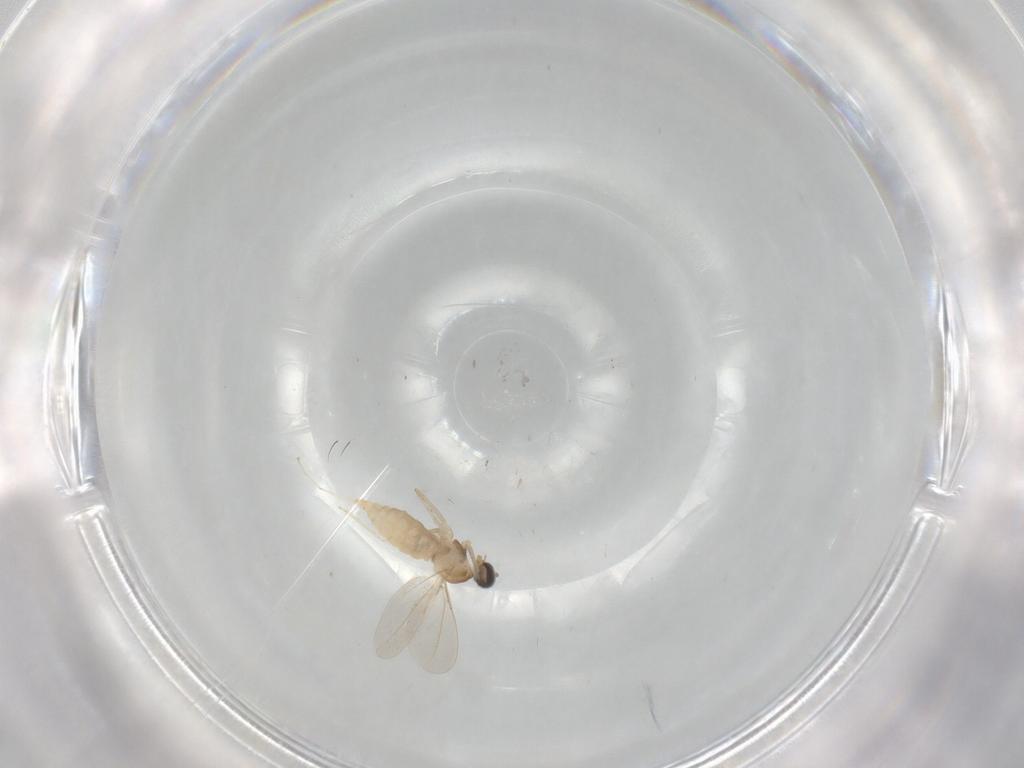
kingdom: Animalia
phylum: Arthropoda
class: Insecta
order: Diptera
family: Cecidomyiidae
